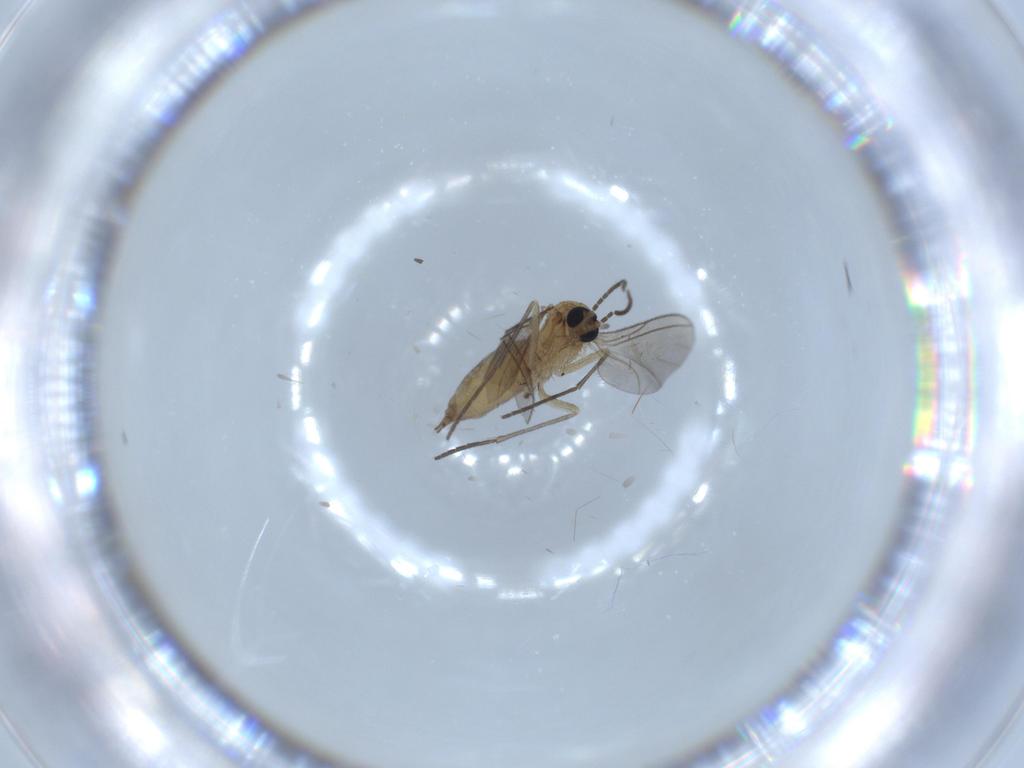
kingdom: Animalia
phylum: Arthropoda
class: Insecta
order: Diptera
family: Sciaridae
